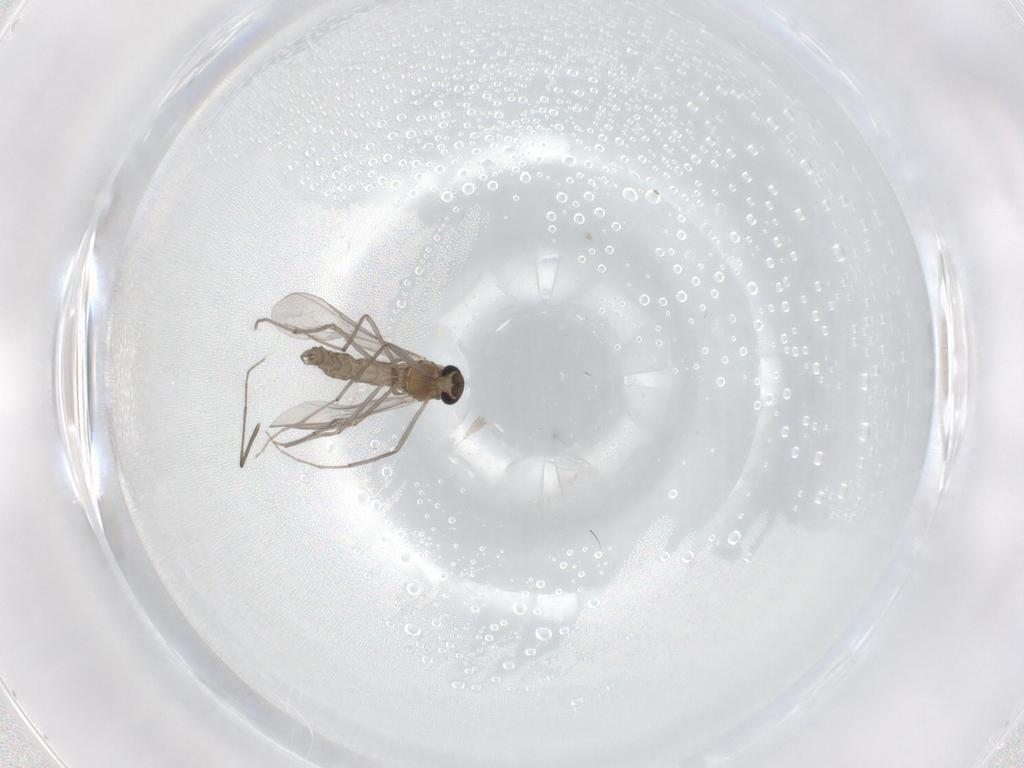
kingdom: Animalia
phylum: Arthropoda
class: Insecta
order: Diptera
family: Chironomidae
